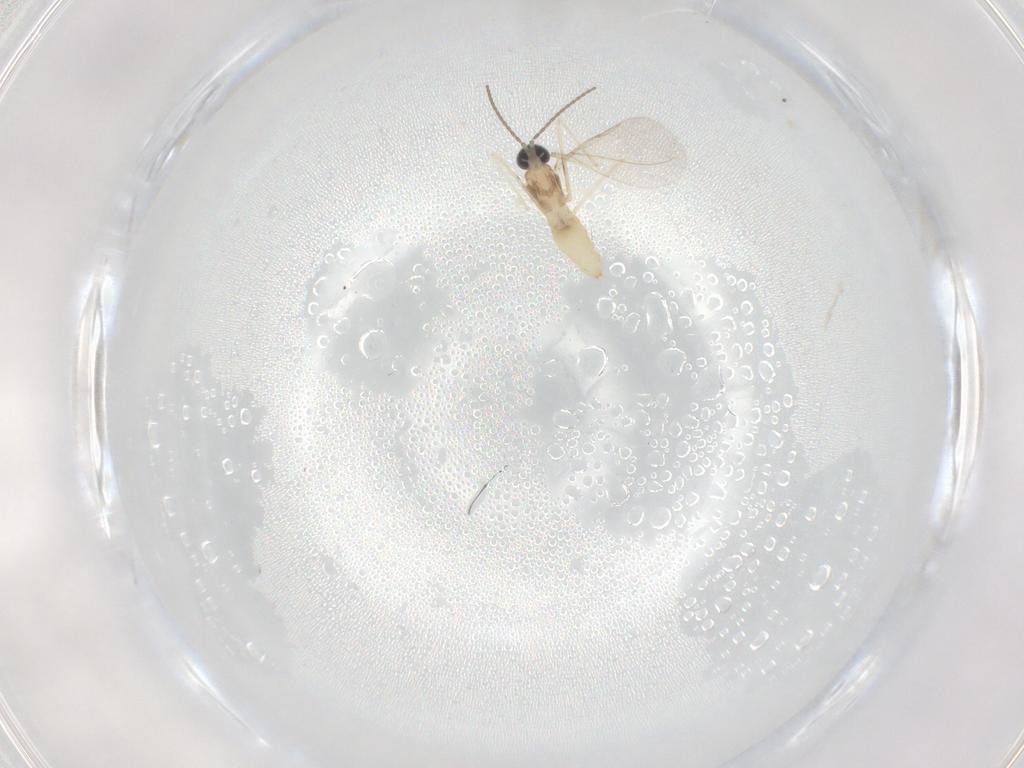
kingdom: Animalia
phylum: Arthropoda
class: Insecta
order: Diptera
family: Cecidomyiidae
